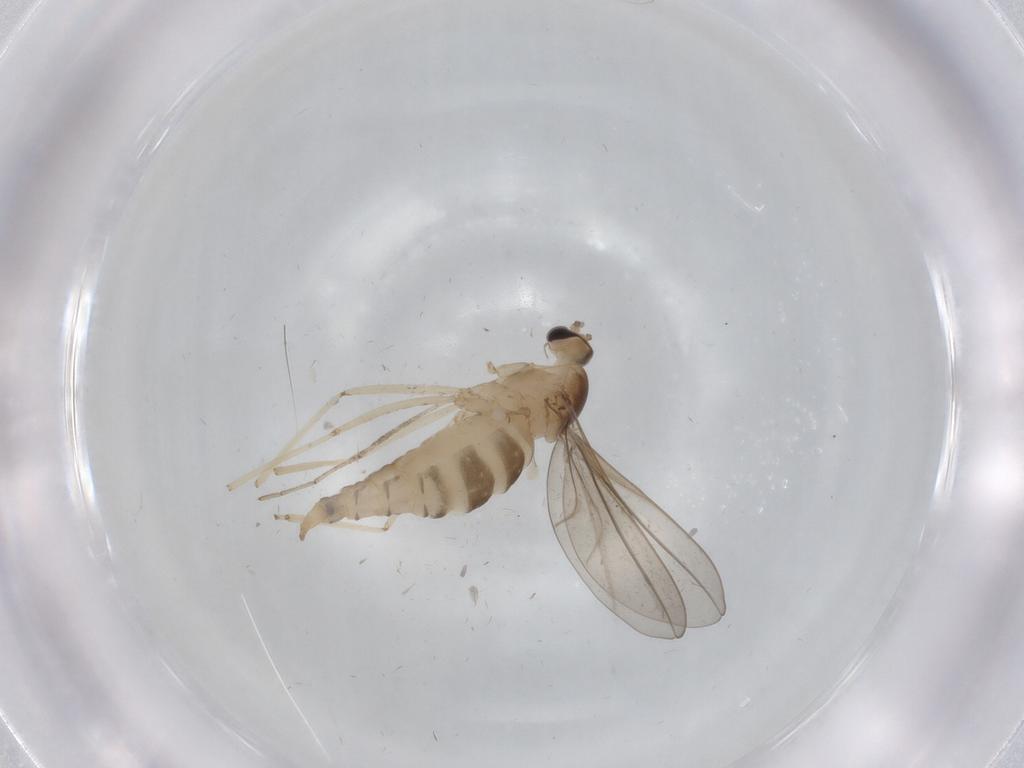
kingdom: Animalia
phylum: Arthropoda
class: Insecta
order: Diptera
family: Cecidomyiidae
